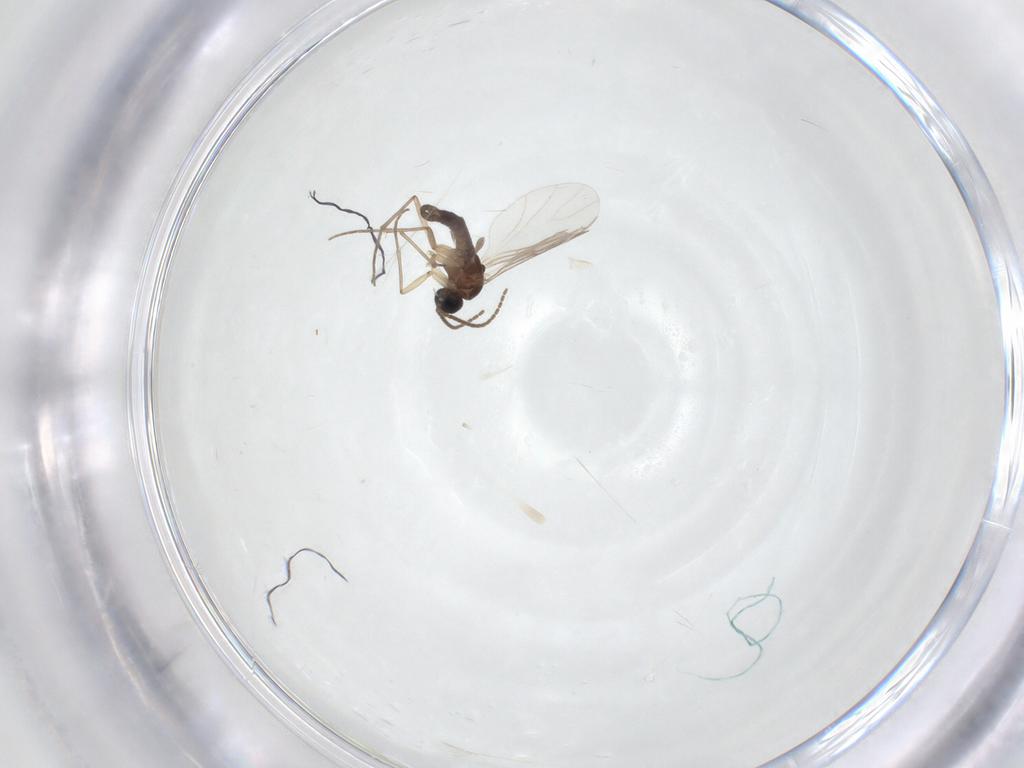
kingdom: Animalia
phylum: Arthropoda
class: Insecta
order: Diptera
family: Sciaridae
